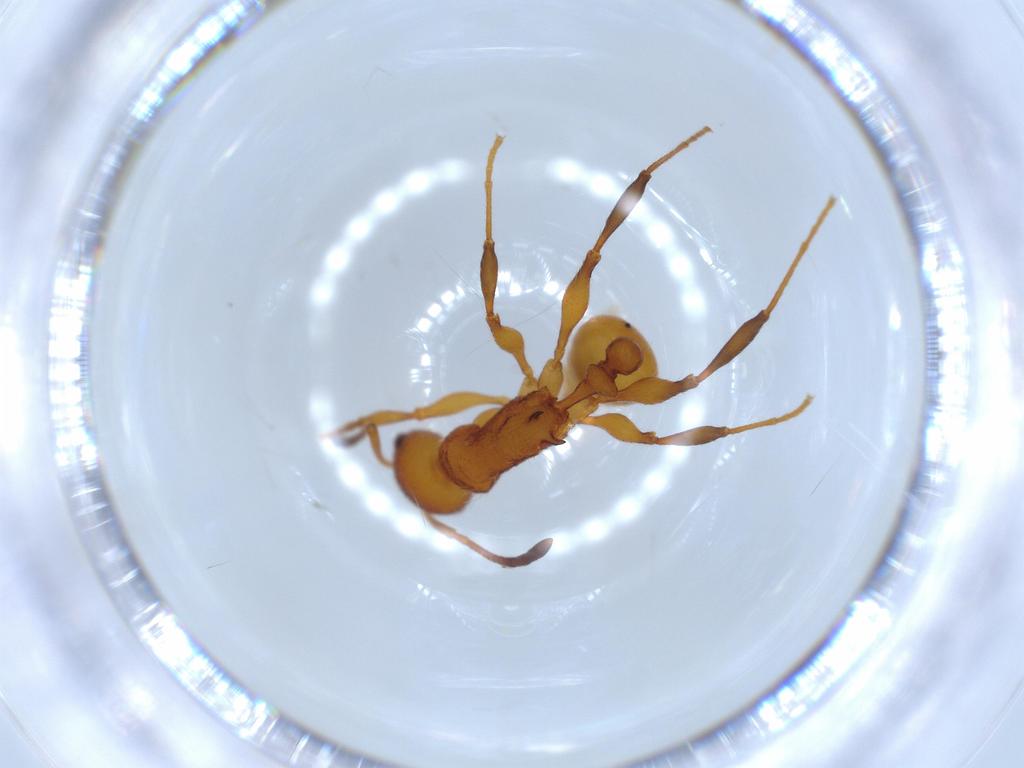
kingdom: Animalia
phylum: Arthropoda
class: Insecta
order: Hymenoptera
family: Formicidae
